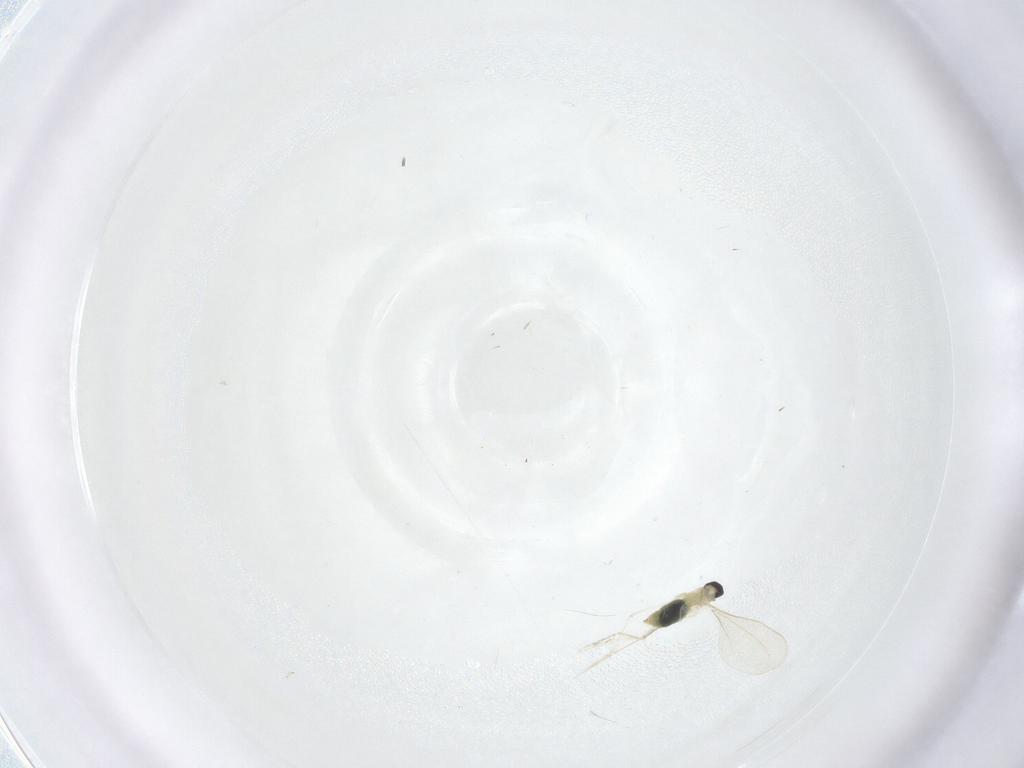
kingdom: Animalia
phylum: Arthropoda
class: Insecta
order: Diptera
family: Cecidomyiidae
